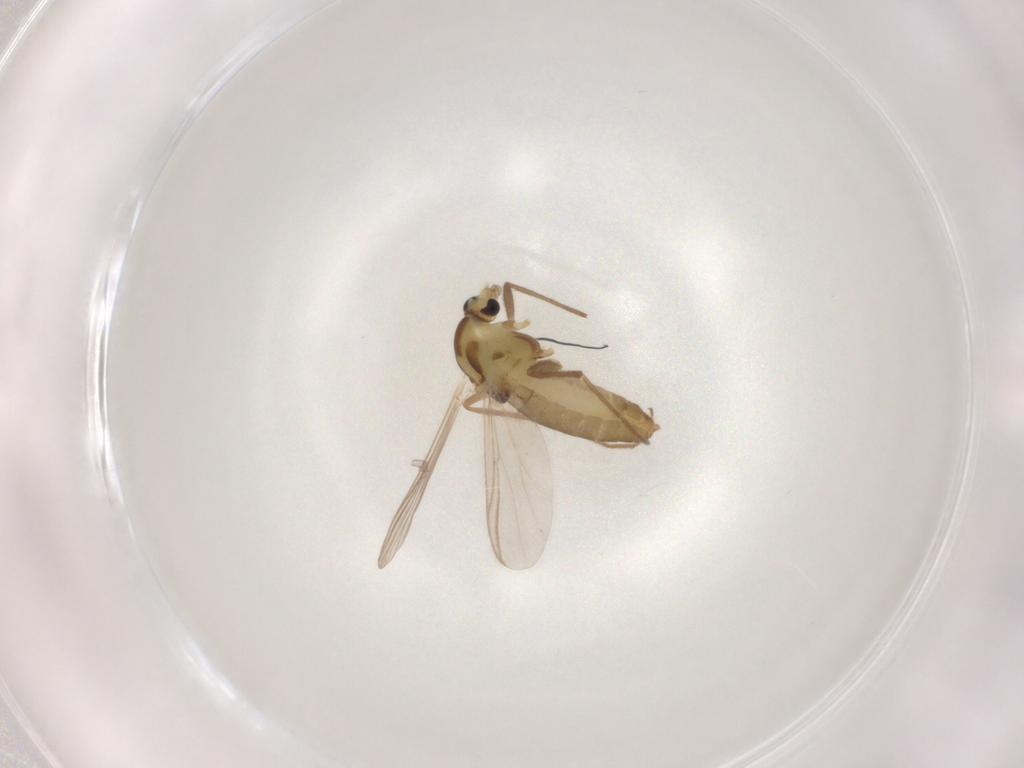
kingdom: Animalia
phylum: Arthropoda
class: Insecta
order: Diptera
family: Chironomidae
